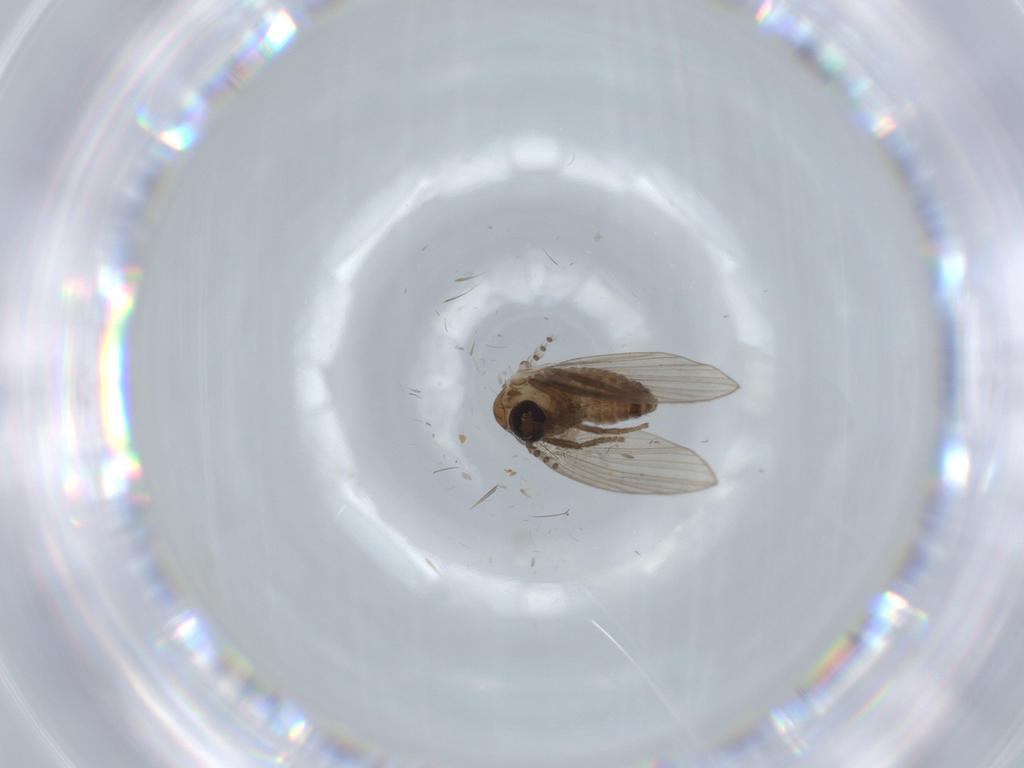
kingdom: Animalia
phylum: Arthropoda
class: Insecta
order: Diptera
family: Psychodidae
